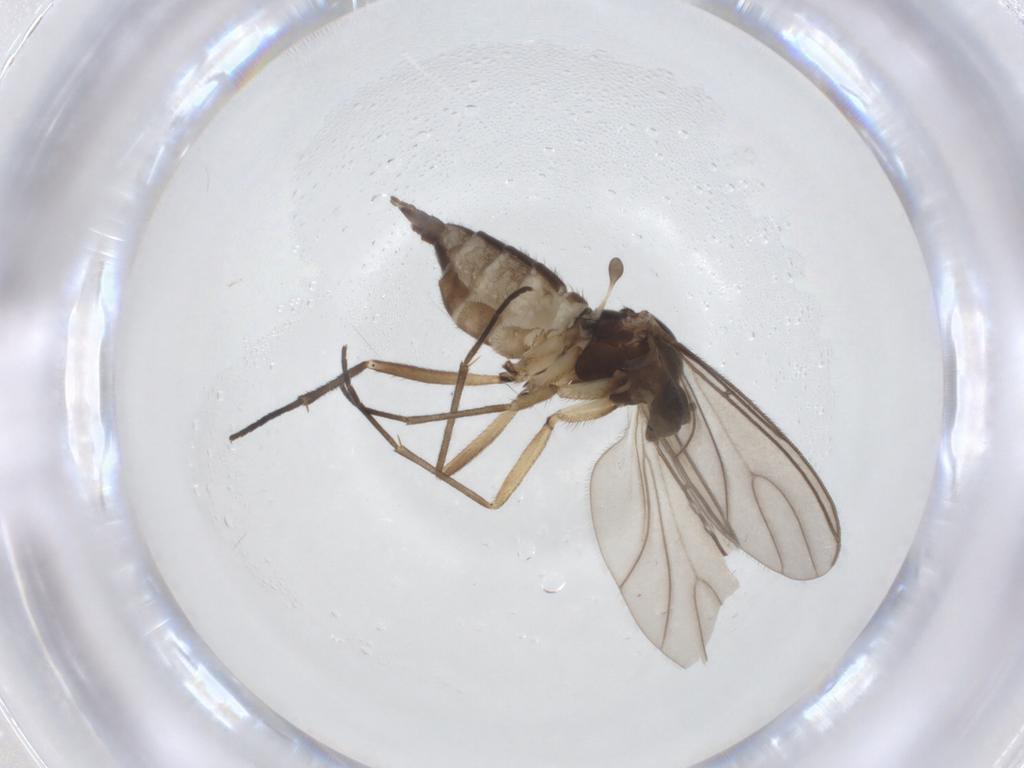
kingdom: Animalia
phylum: Arthropoda
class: Insecta
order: Diptera
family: Sciaridae
